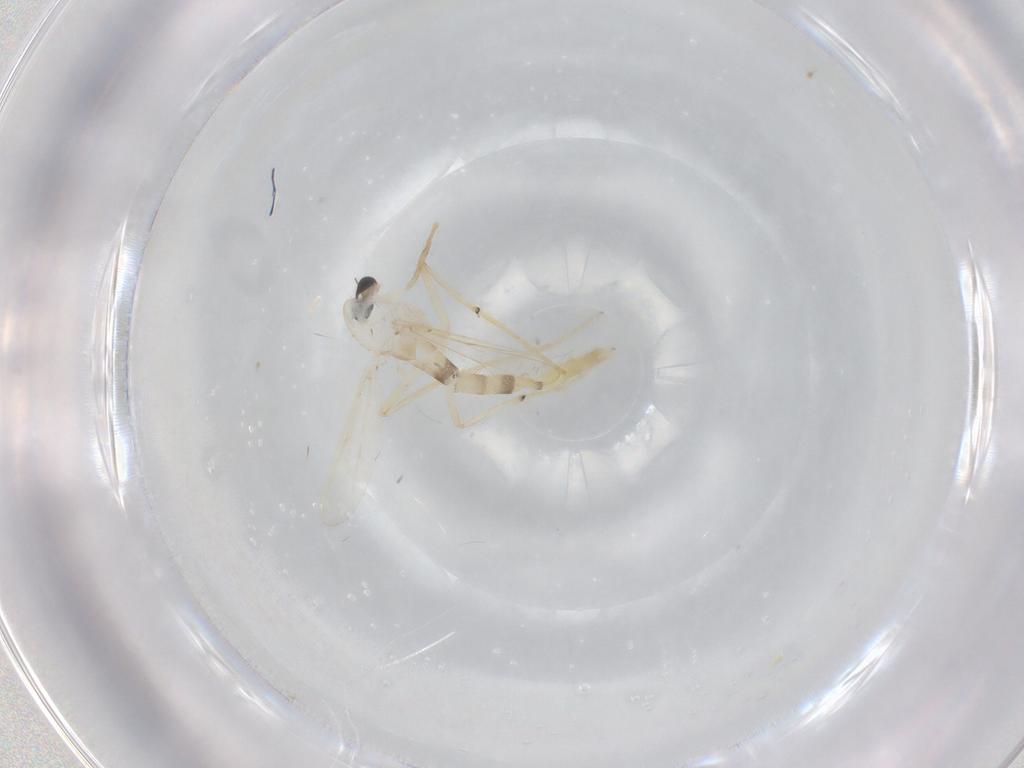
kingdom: Animalia
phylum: Arthropoda
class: Insecta
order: Diptera
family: Chironomidae
